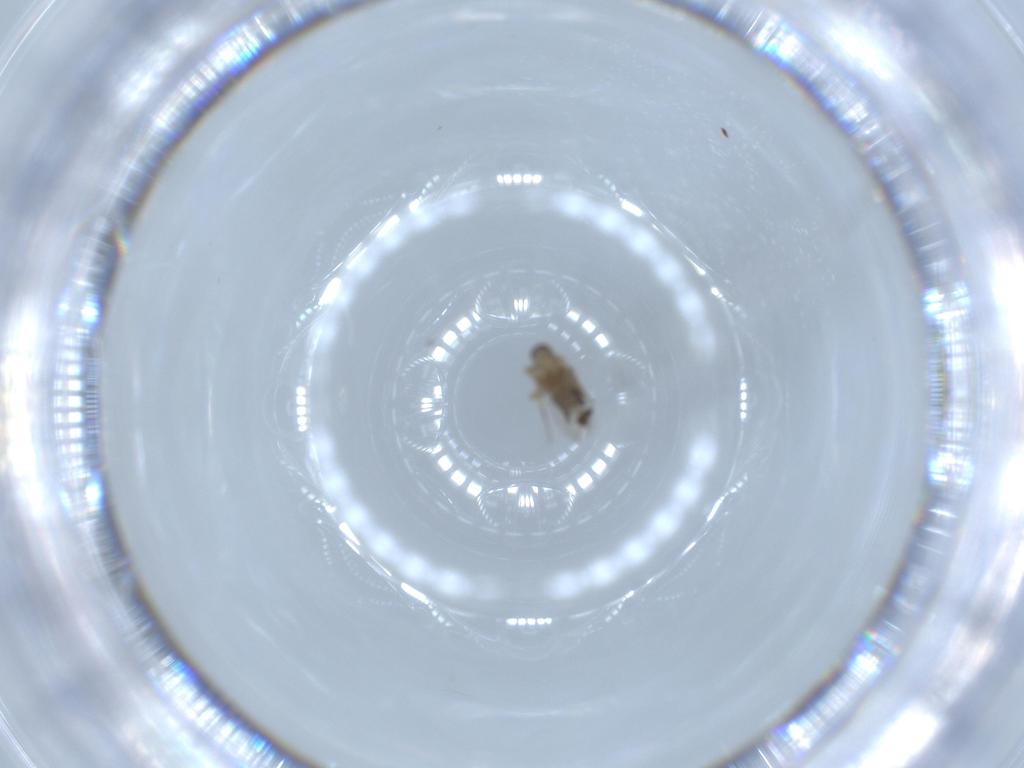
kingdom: Animalia
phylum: Arthropoda
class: Insecta
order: Diptera
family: Phoridae
